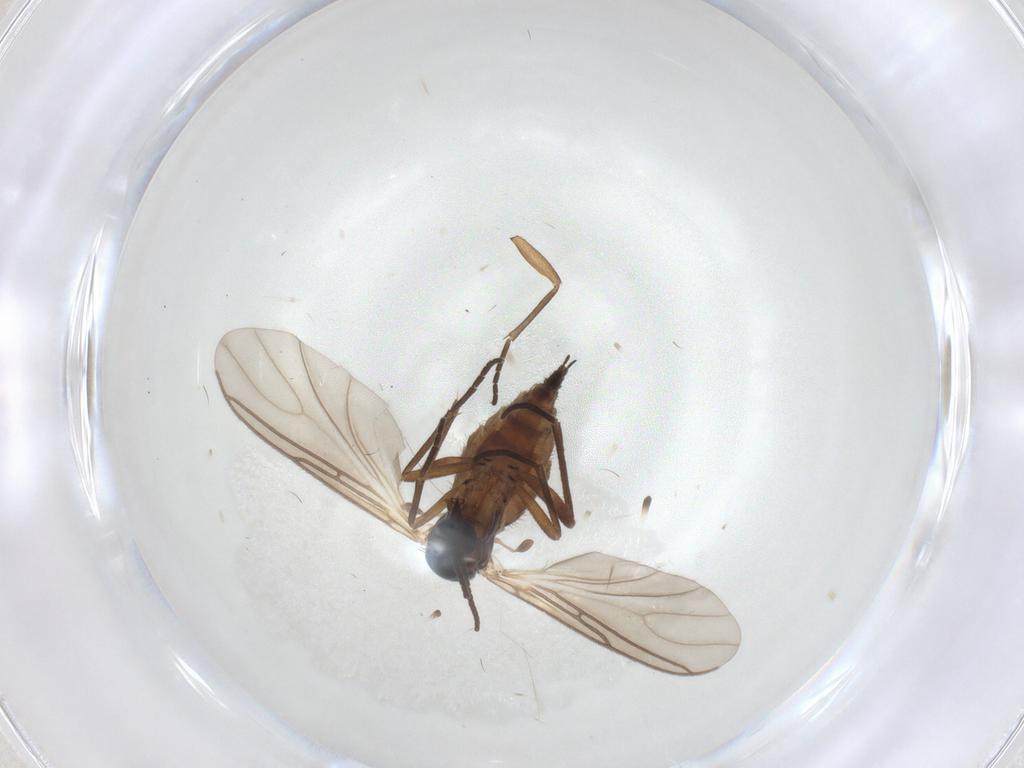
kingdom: Animalia
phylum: Arthropoda
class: Insecta
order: Diptera
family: Sciaridae
